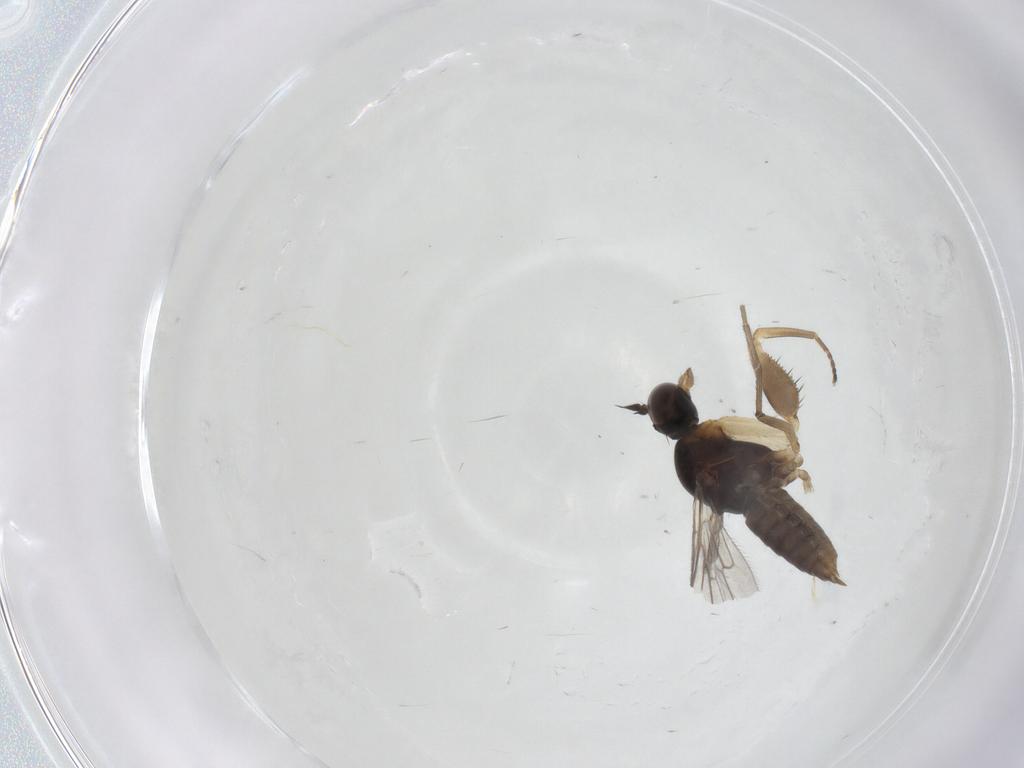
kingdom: Animalia
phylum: Arthropoda
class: Insecta
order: Diptera
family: Empididae
